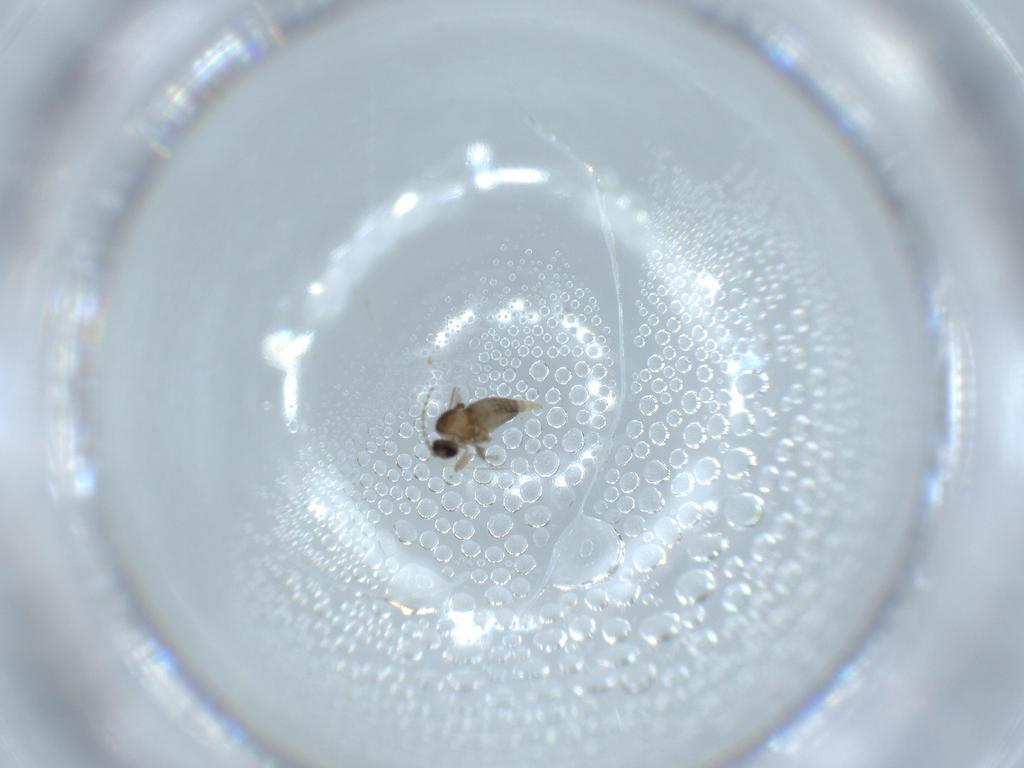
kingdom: Animalia
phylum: Arthropoda
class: Insecta
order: Diptera
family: Cecidomyiidae
